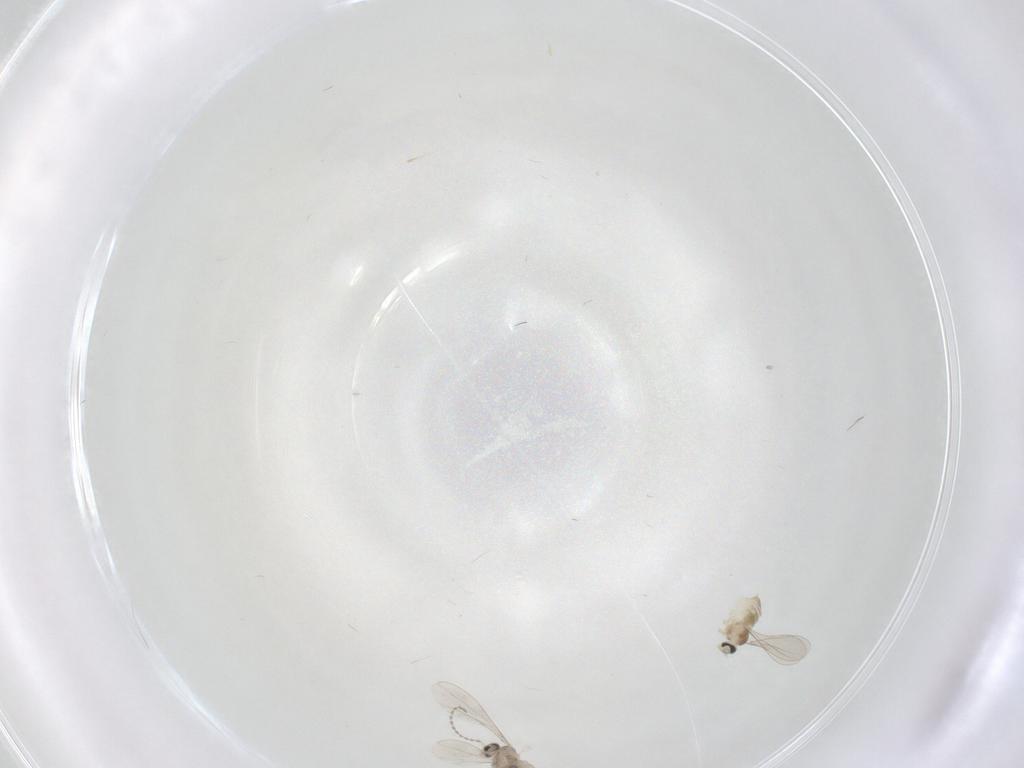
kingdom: Animalia
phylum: Arthropoda
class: Insecta
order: Diptera
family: Cecidomyiidae
